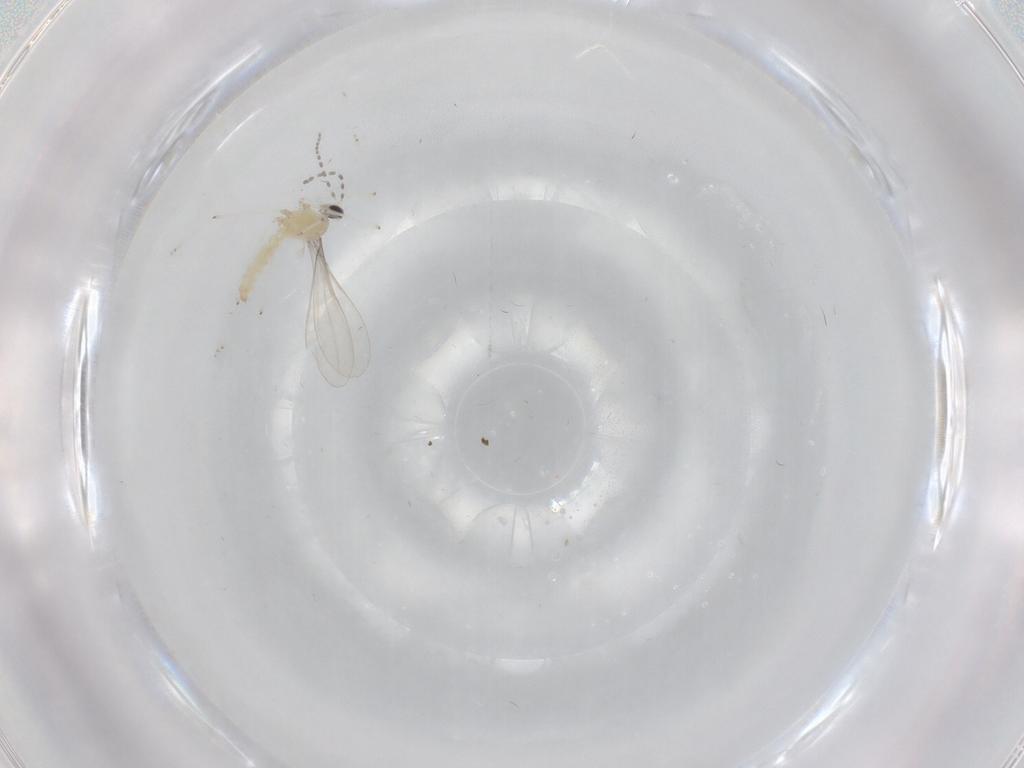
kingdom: Animalia
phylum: Arthropoda
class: Insecta
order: Diptera
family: Cecidomyiidae
